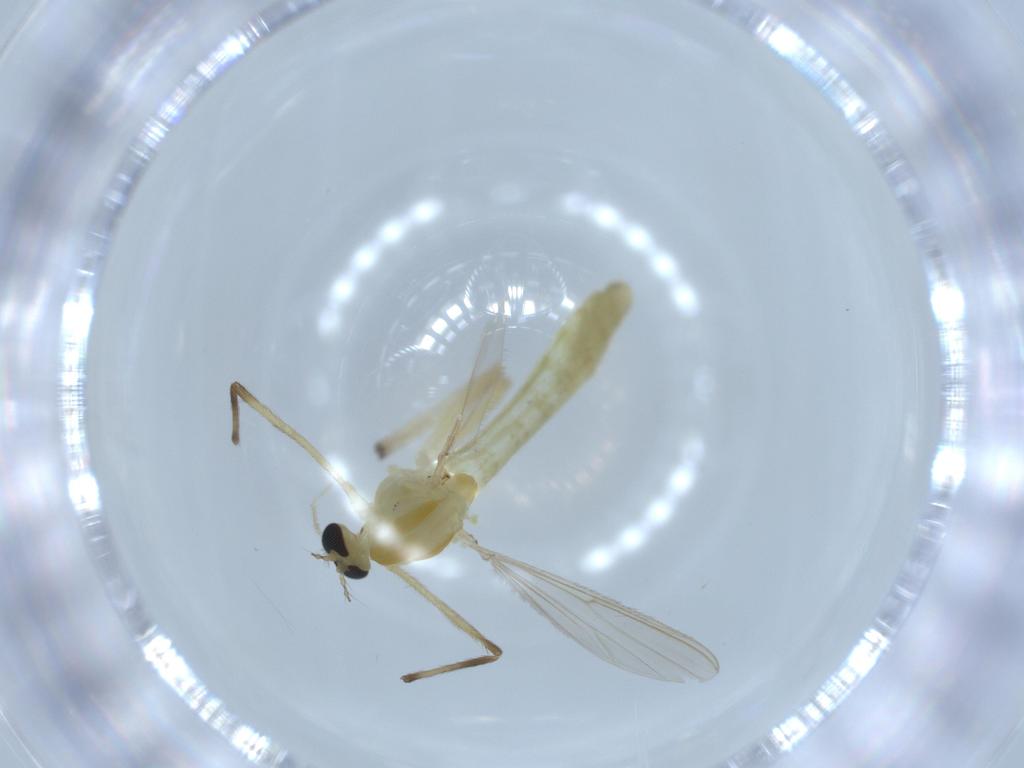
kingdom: Animalia
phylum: Arthropoda
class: Insecta
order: Diptera
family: Chironomidae
